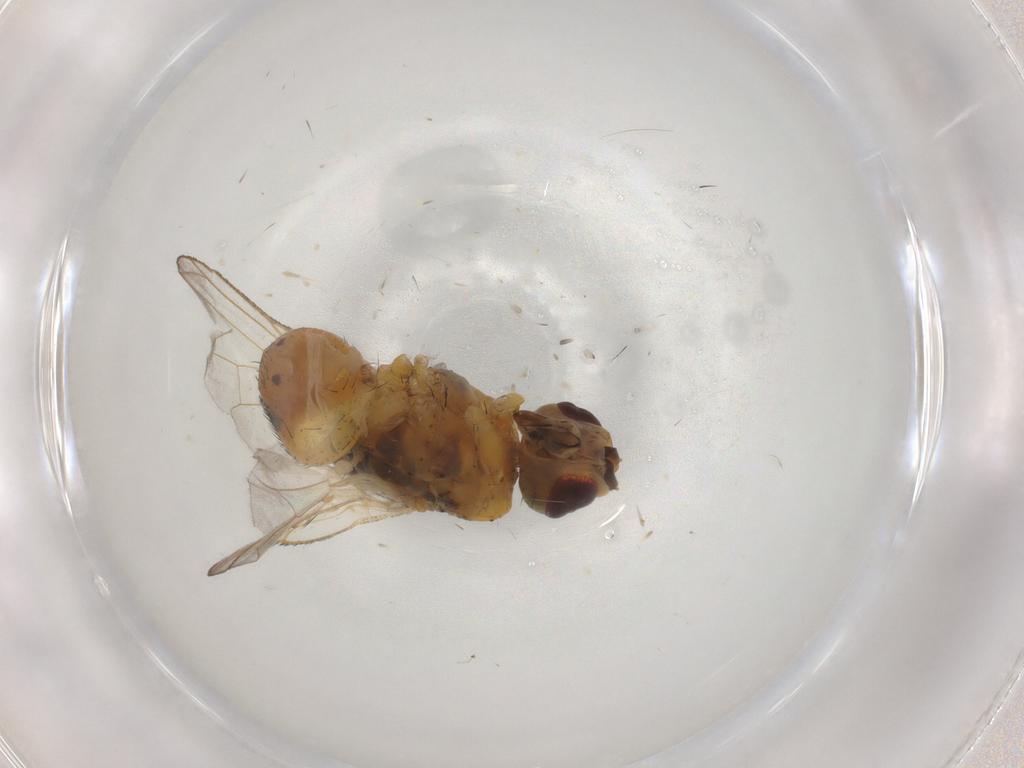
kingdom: Animalia
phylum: Arthropoda
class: Insecta
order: Diptera
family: Muscidae
